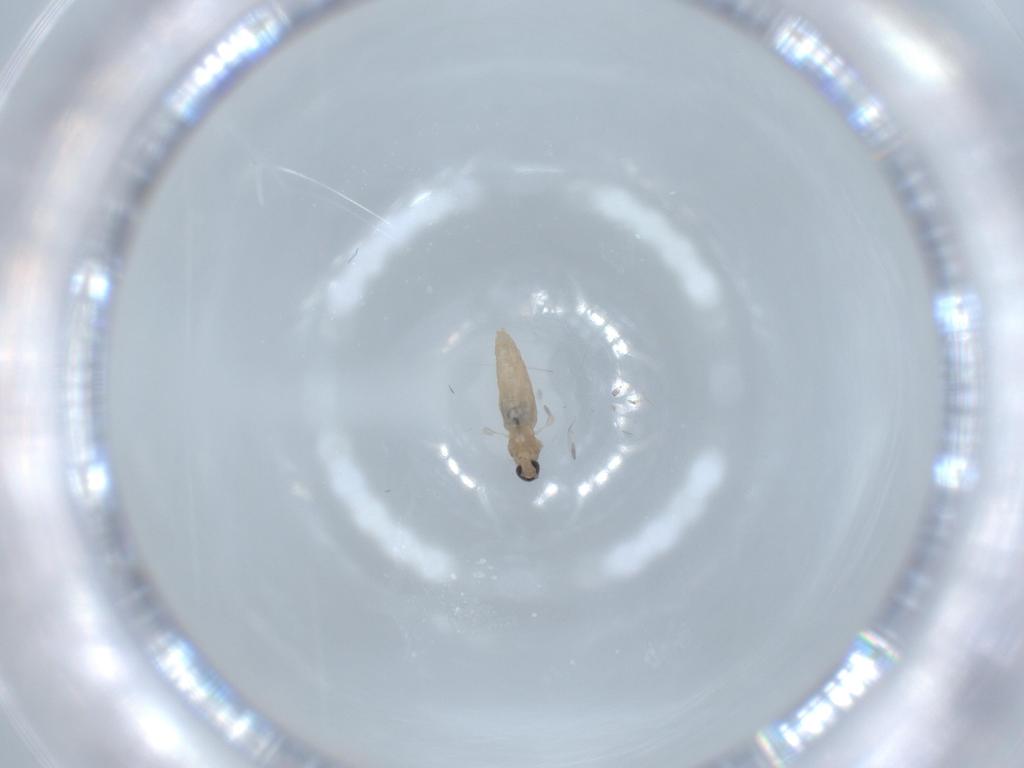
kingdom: Animalia
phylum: Arthropoda
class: Insecta
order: Diptera
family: Cecidomyiidae
